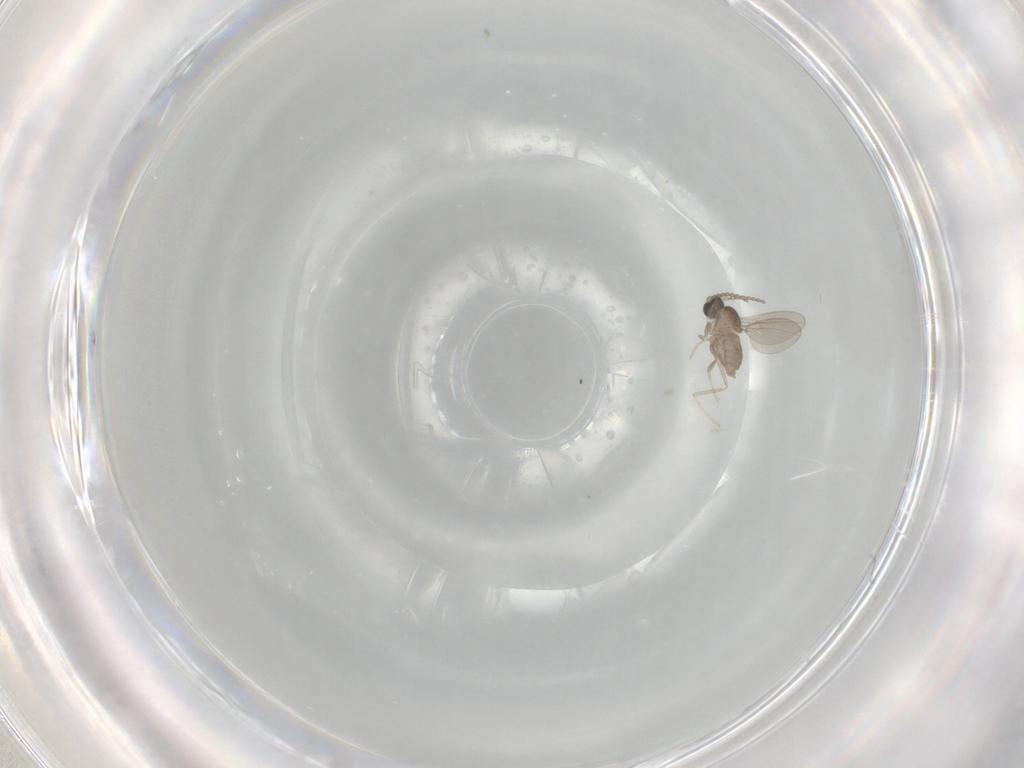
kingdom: Animalia
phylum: Arthropoda
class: Insecta
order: Diptera
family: Cecidomyiidae
